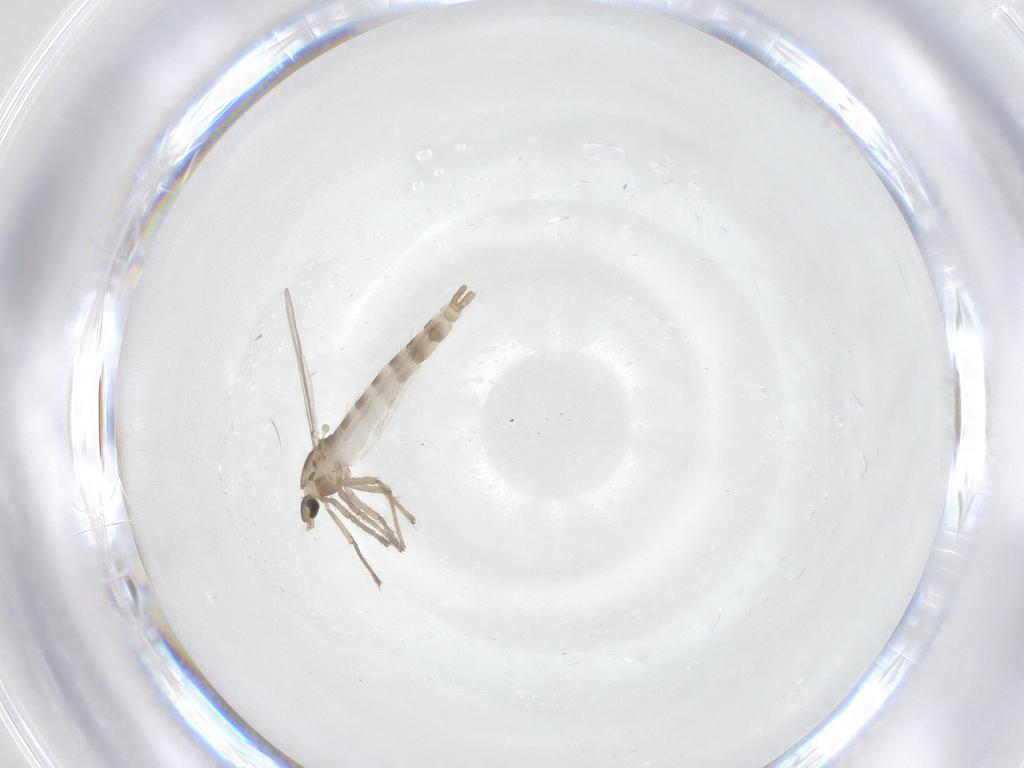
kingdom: Animalia
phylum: Arthropoda
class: Insecta
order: Diptera
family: Chironomidae
